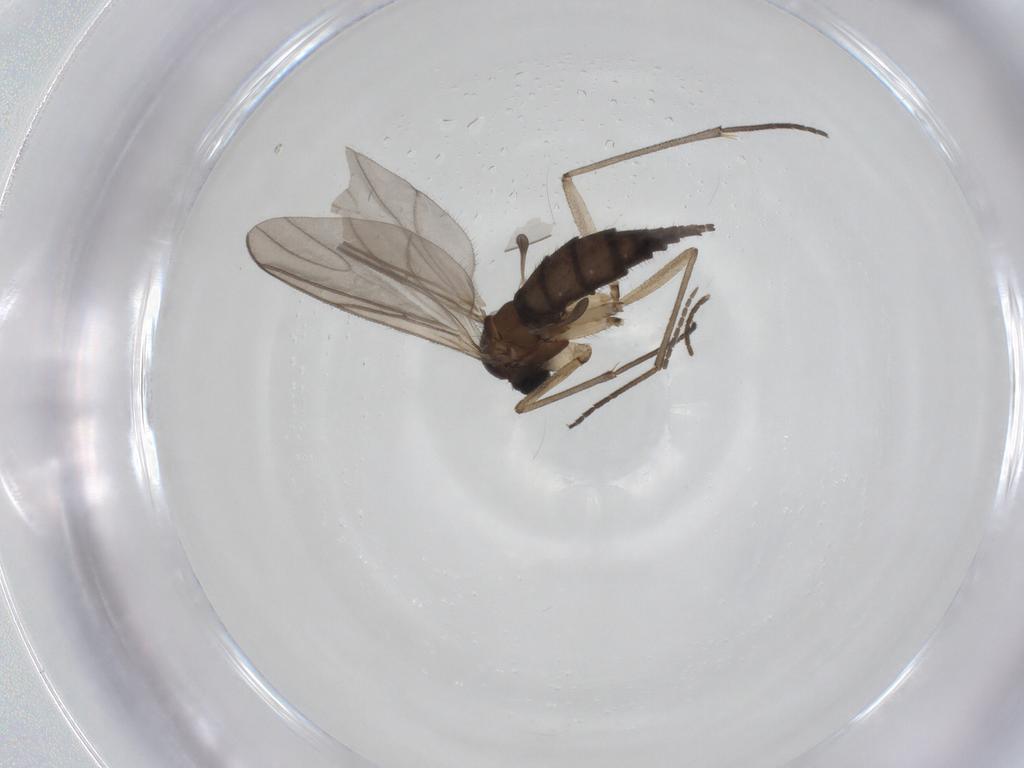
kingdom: Animalia
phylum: Arthropoda
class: Insecta
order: Diptera
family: Sciaridae
